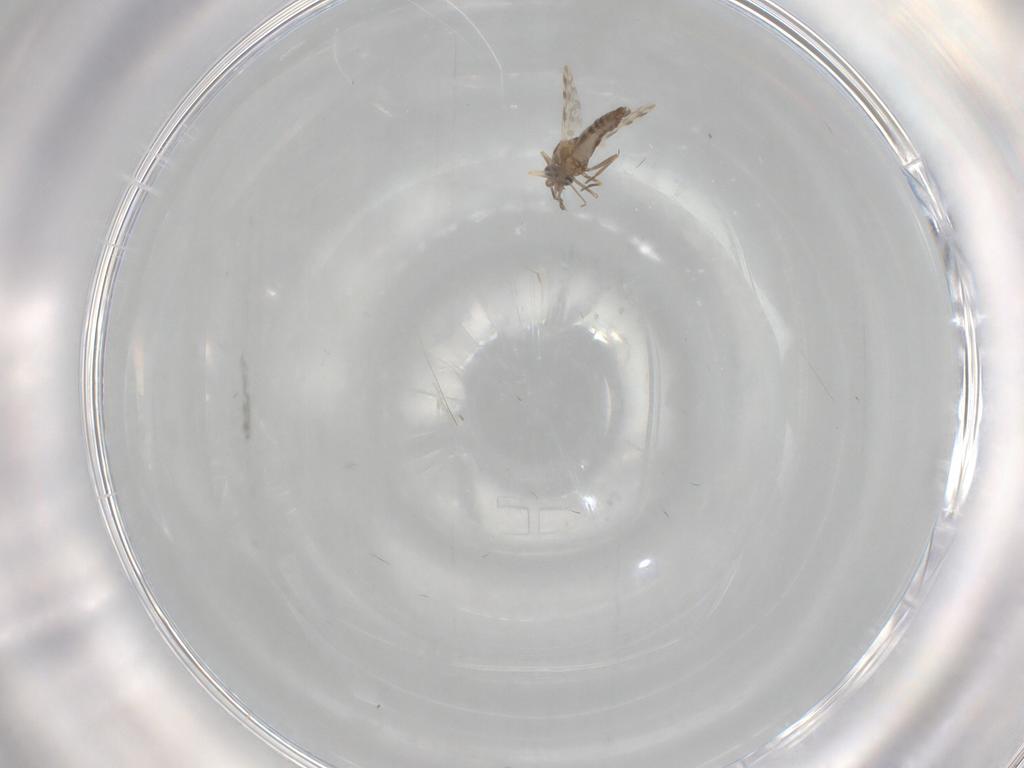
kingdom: Animalia
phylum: Arthropoda
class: Insecta
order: Diptera
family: Ceratopogonidae
